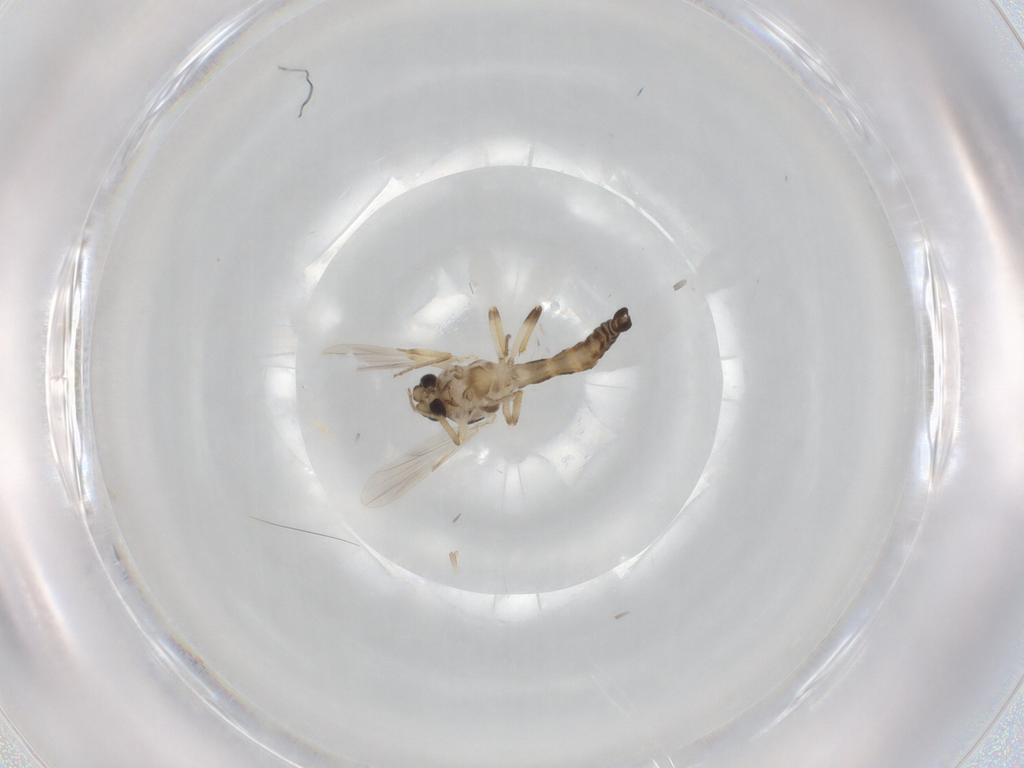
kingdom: Animalia
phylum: Arthropoda
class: Insecta
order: Diptera
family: Ceratopogonidae
